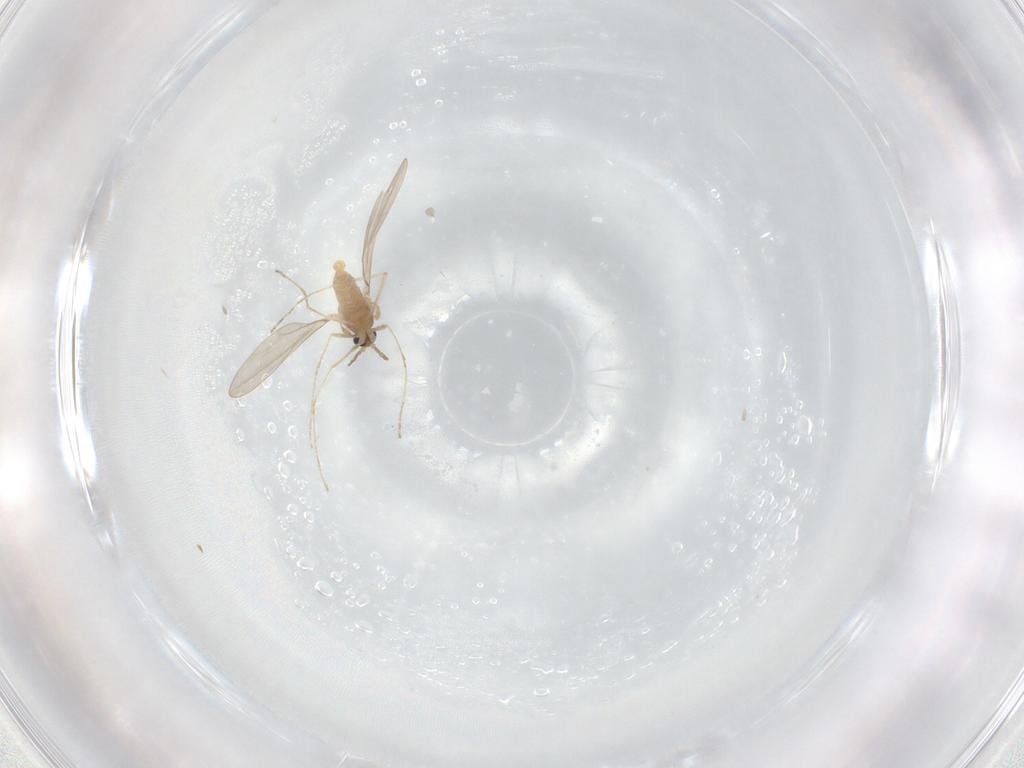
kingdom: Animalia
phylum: Arthropoda
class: Insecta
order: Diptera
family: Cecidomyiidae
